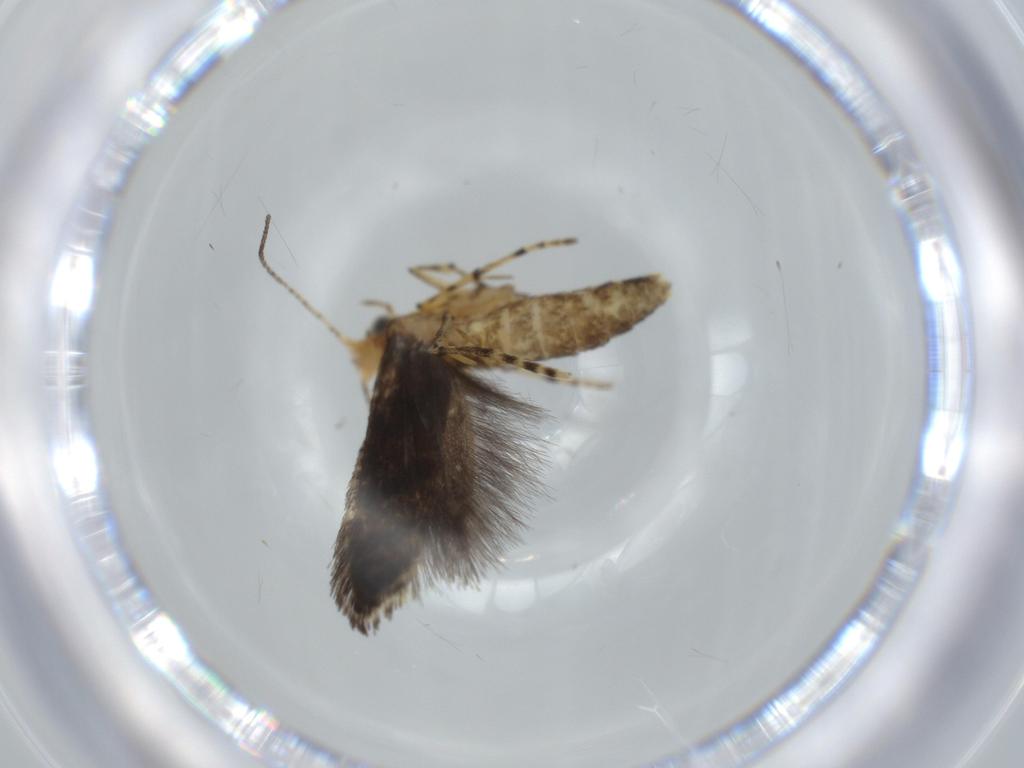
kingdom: Animalia
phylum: Arthropoda
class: Insecta
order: Lepidoptera
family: Argyresthiidae
